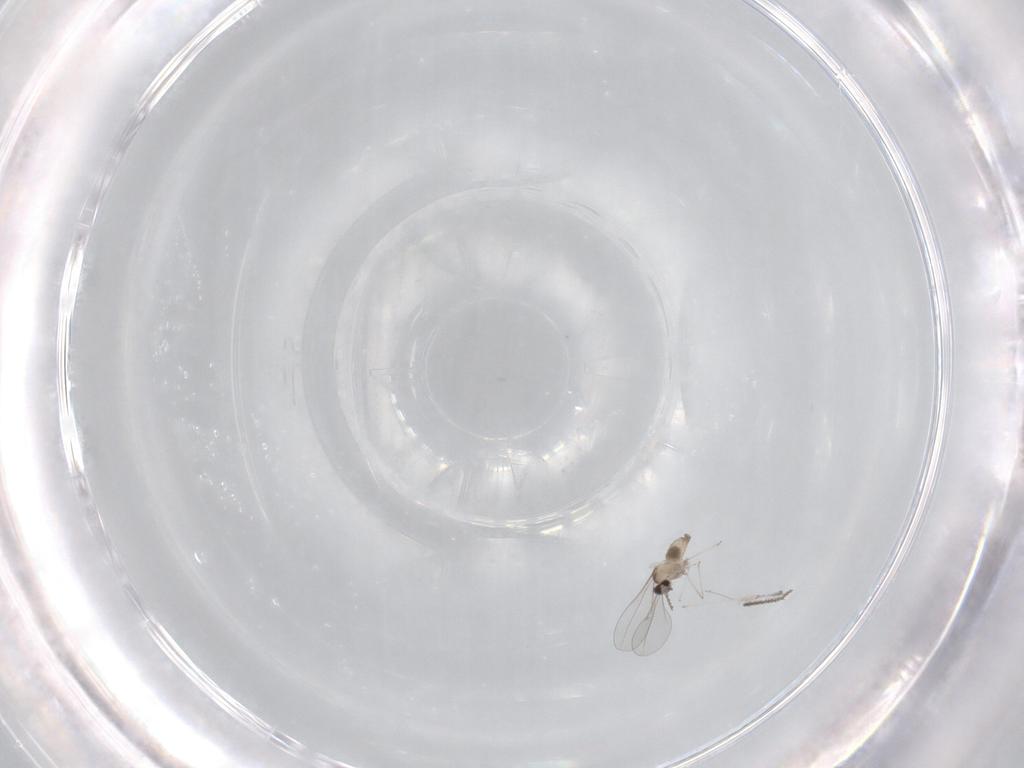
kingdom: Animalia
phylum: Arthropoda
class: Insecta
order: Diptera
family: Cecidomyiidae
